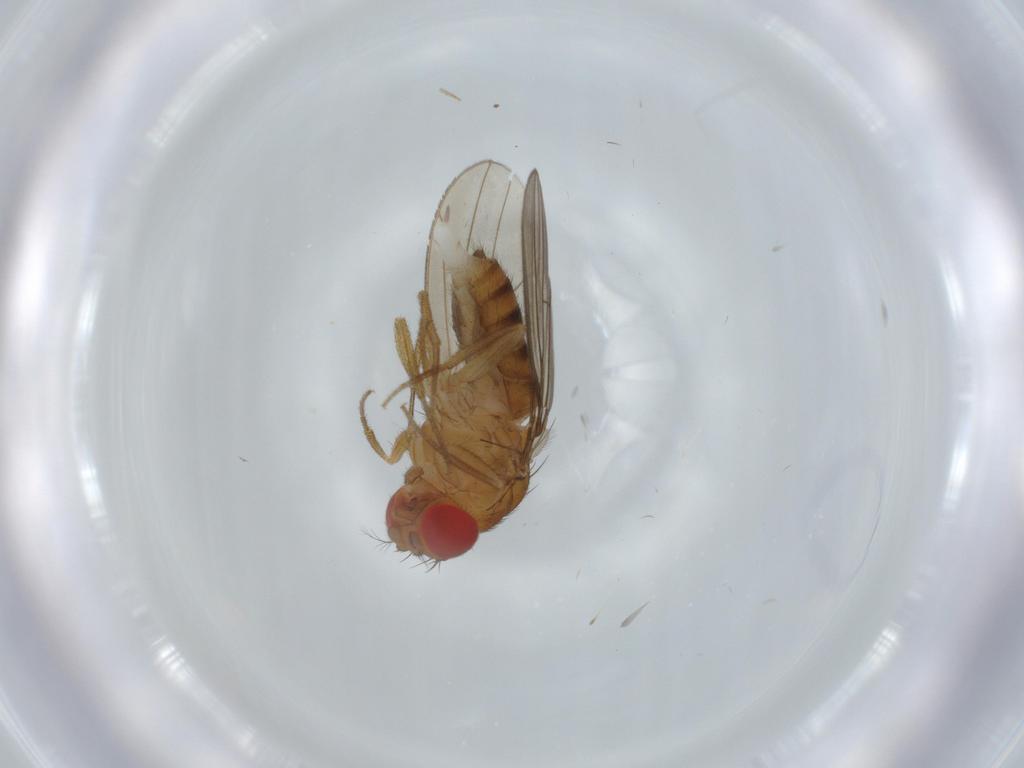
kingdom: Animalia
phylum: Arthropoda
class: Insecta
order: Diptera
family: Drosophilidae
